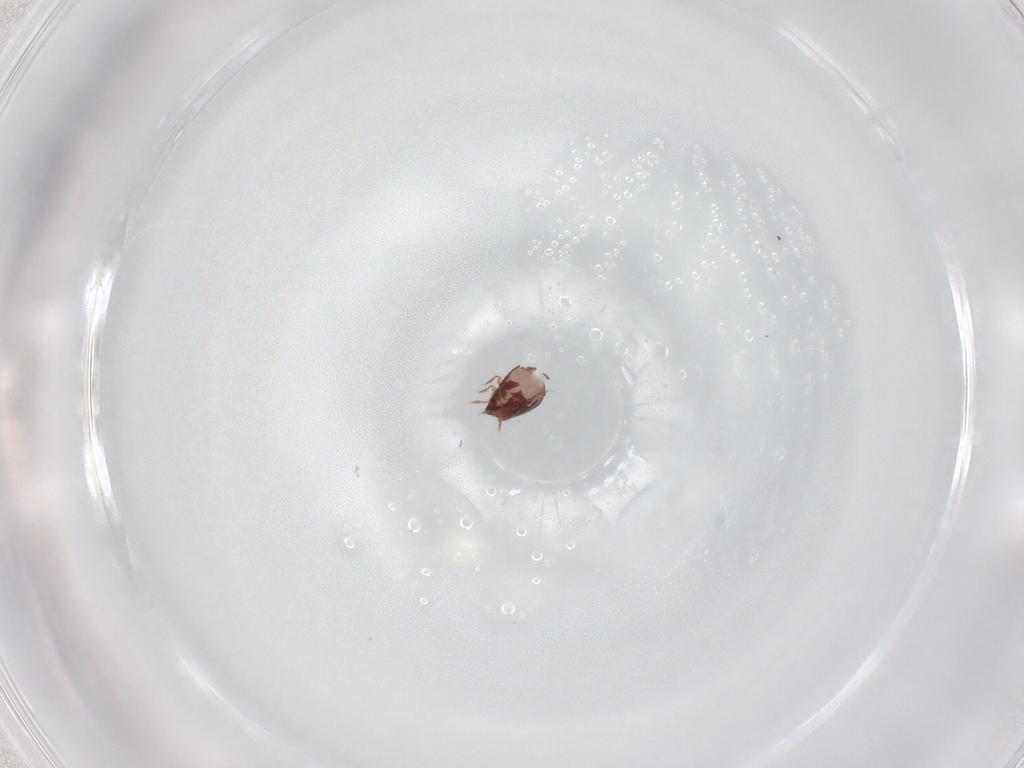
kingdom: Animalia
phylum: Arthropoda
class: Arachnida
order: Sarcoptiformes
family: Galumnidae
